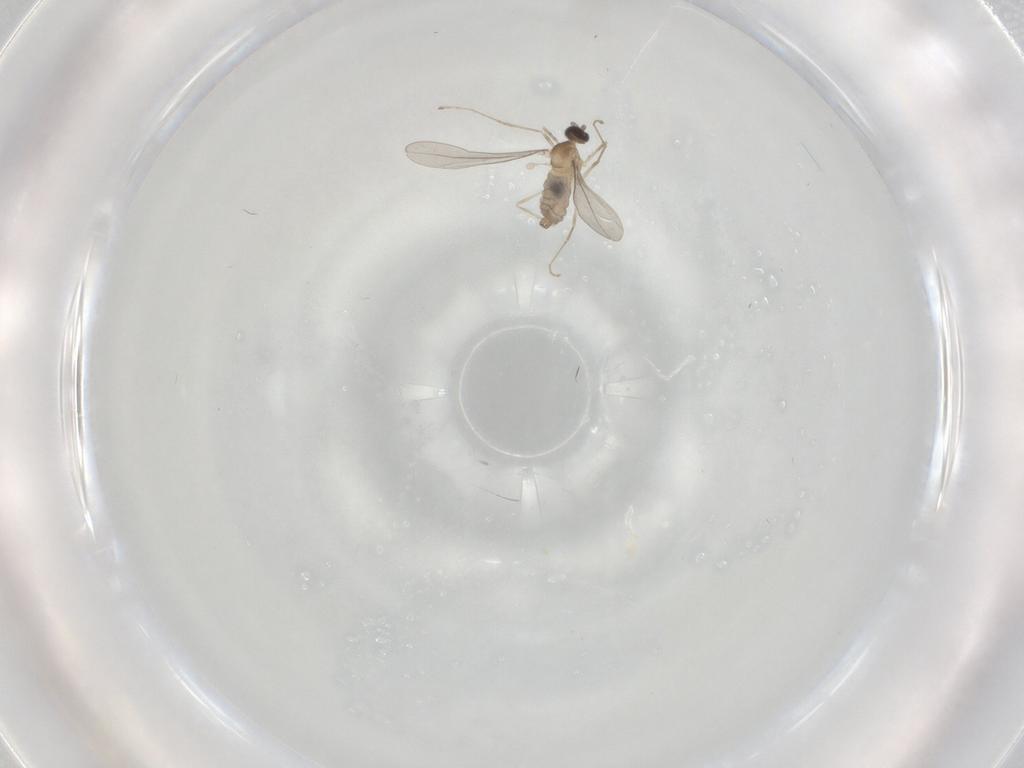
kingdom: Animalia
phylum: Arthropoda
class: Insecta
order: Diptera
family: Cecidomyiidae
